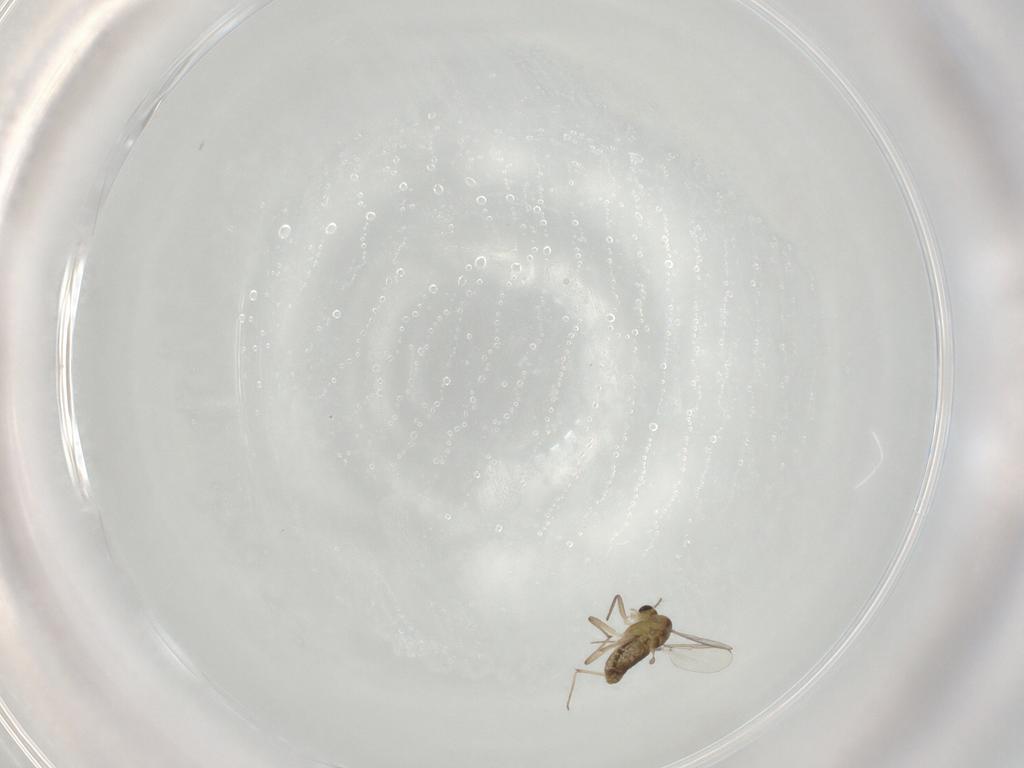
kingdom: Animalia
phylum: Arthropoda
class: Insecta
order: Diptera
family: Chironomidae
